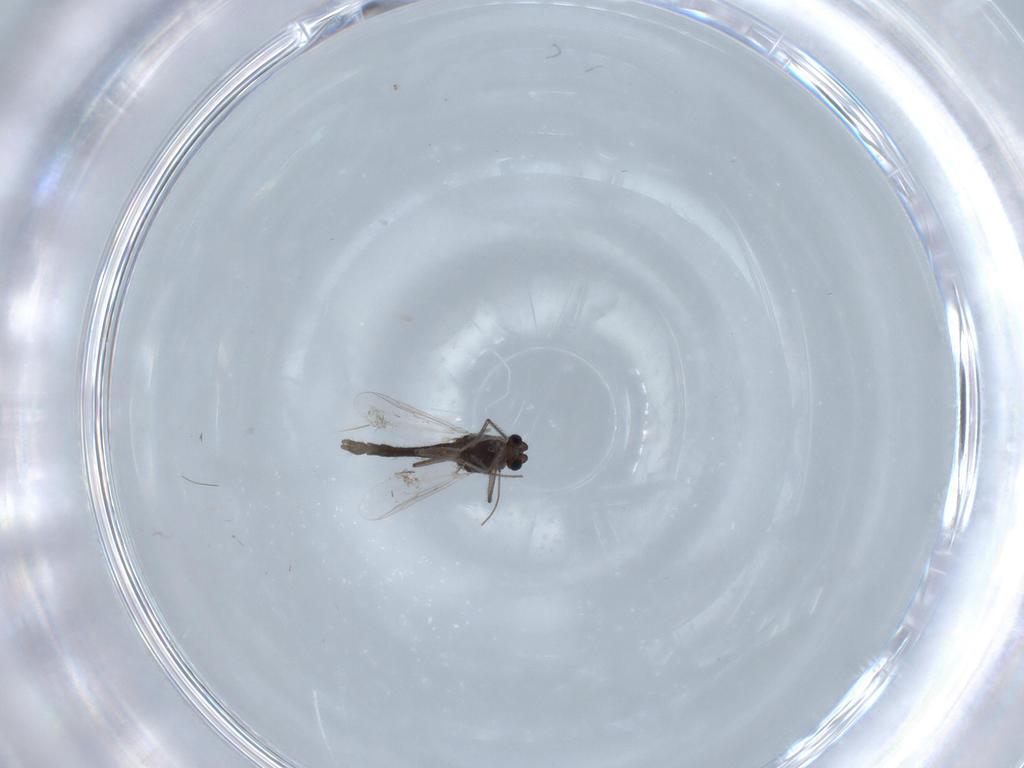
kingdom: Animalia
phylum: Arthropoda
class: Insecta
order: Diptera
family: Chironomidae
